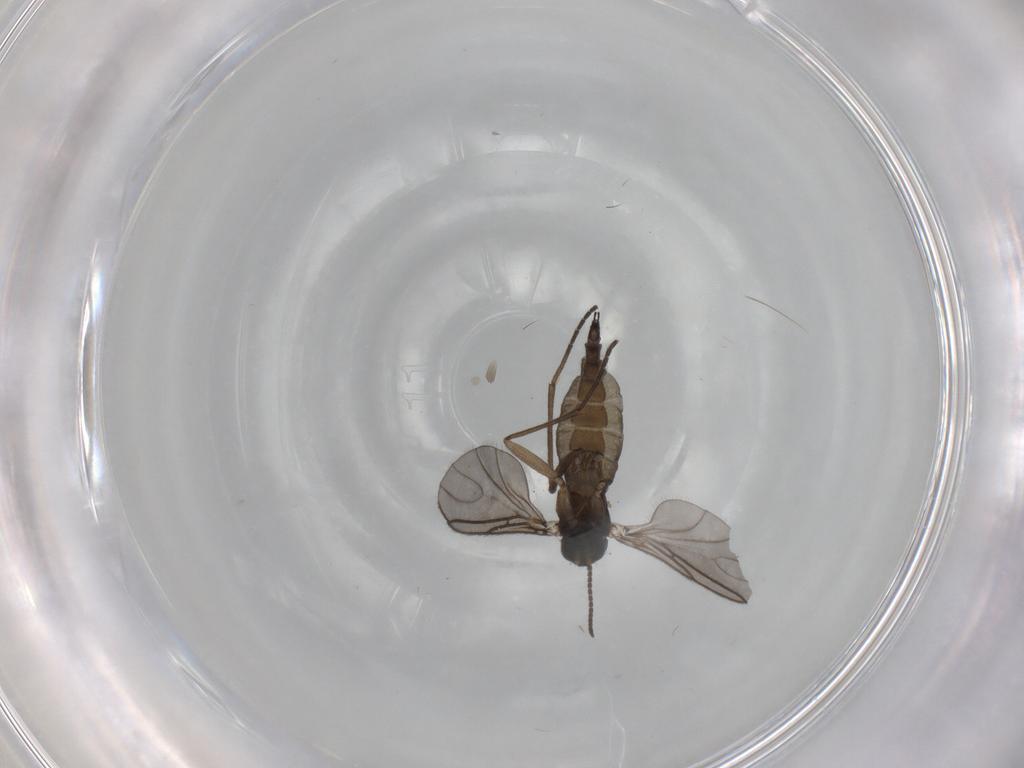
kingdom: Animalia
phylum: Arthropoda
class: Insecta
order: Diptera
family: Sciaridae
